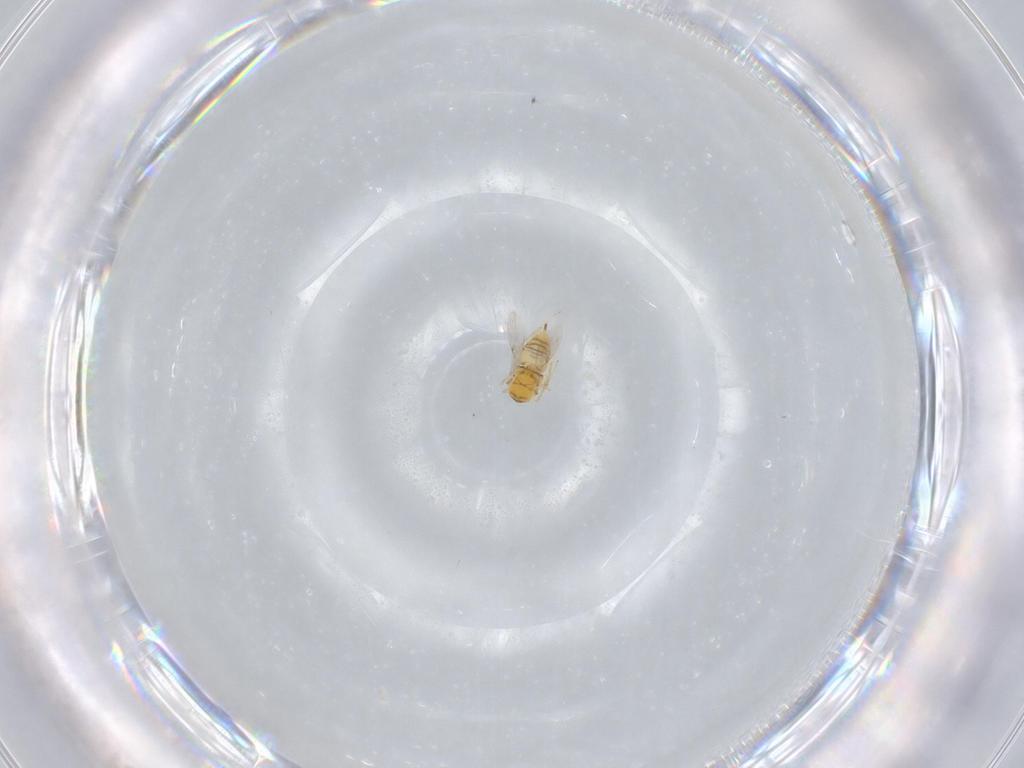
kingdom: Animalia
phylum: Arthropoda
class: Insecta
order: Hymenoptera
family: Encyrtidae
